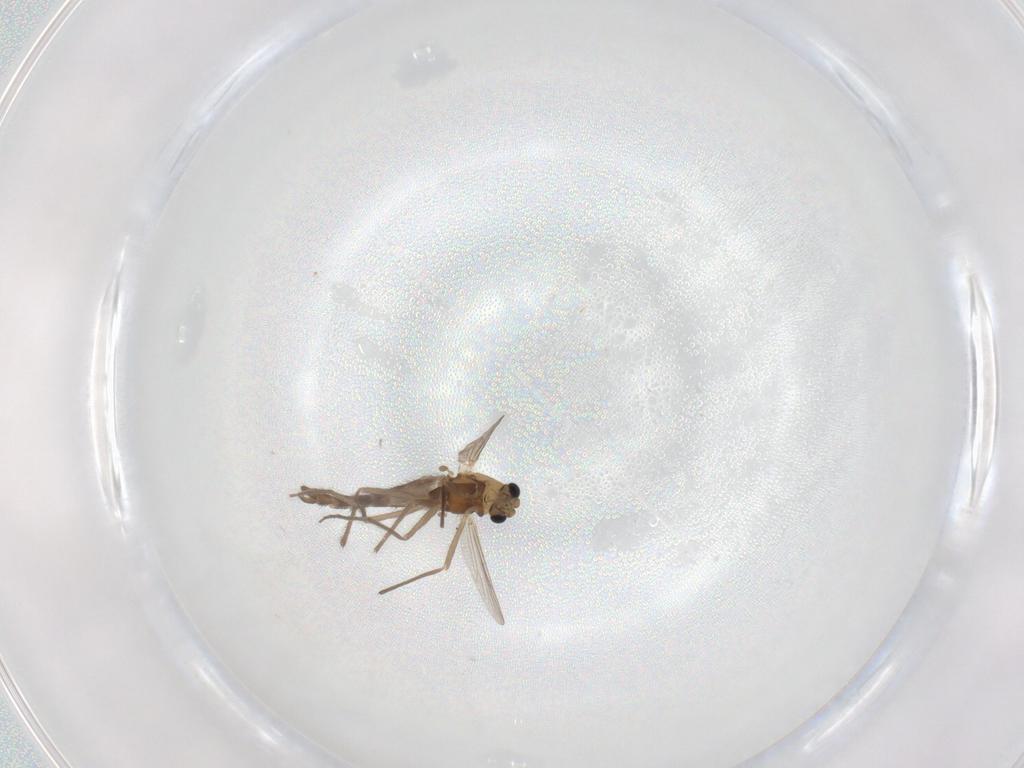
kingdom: Animalia
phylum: Arthropoda
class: Insecta
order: Diptera
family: Chironomidae
